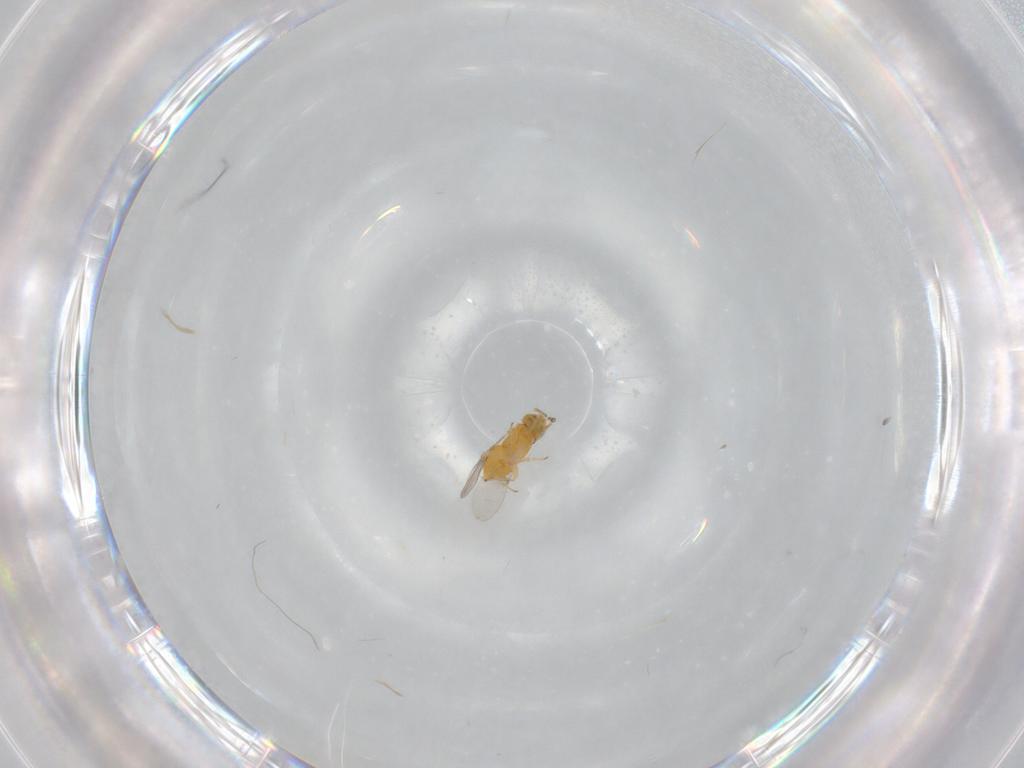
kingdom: Animalia
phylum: Arthropoda
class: Insecta
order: Hymenoptera
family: Encyrtidae
